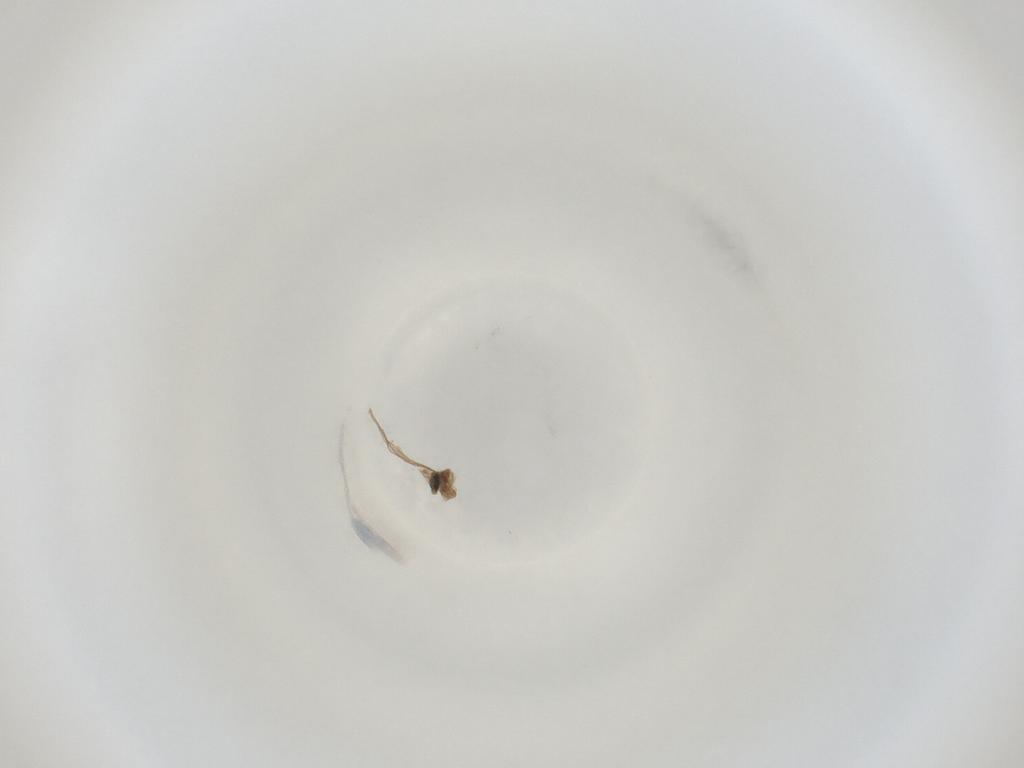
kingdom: Animalia
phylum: Arthropoda
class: Insecta
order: Diptera
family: Cecidomyiidae
